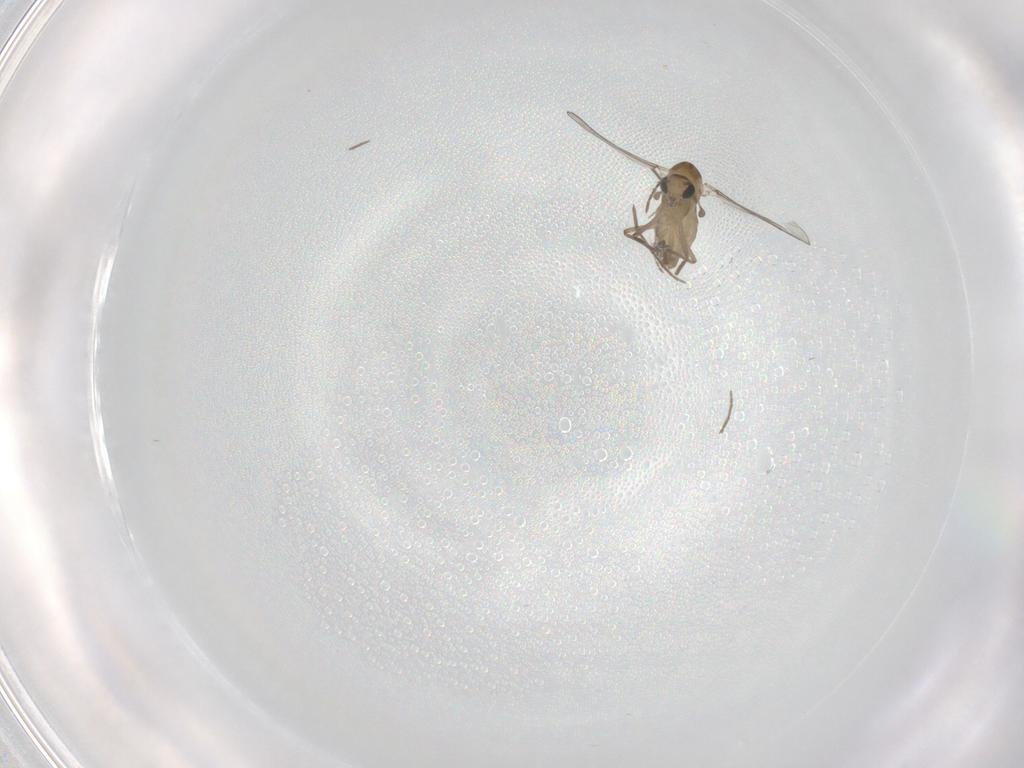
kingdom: Animalia
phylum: Arthropoda
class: Insecta
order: Diptera
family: Chironomidae
